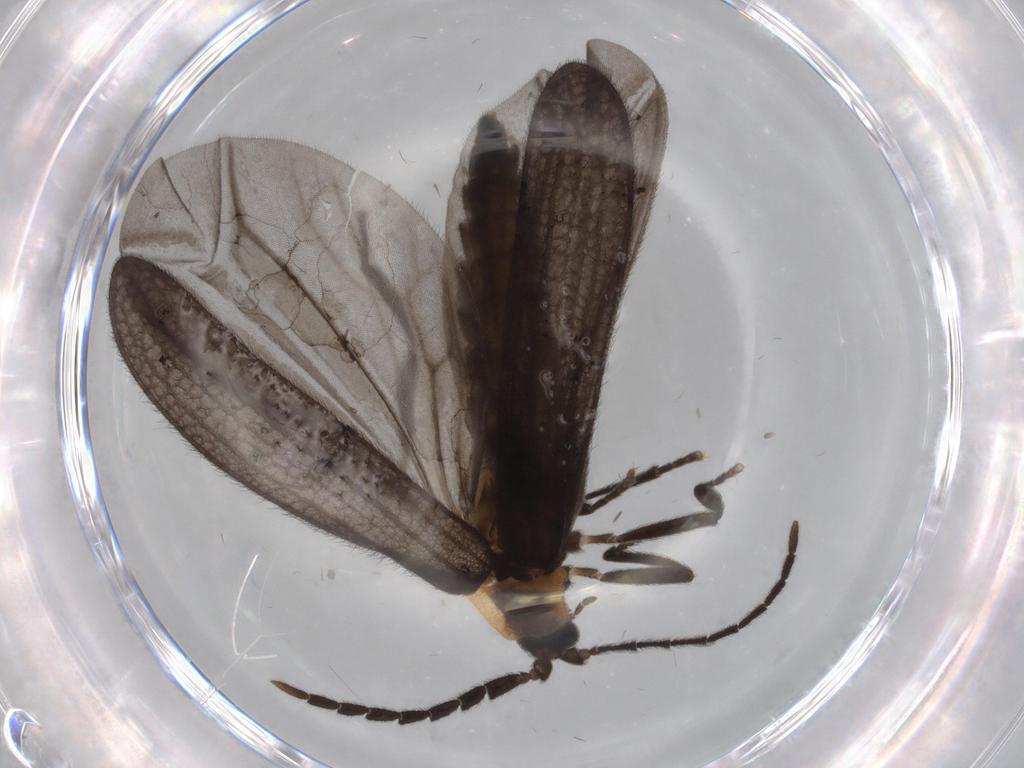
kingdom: Animalia
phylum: Arthropoda
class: Insecta
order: Coleoptera
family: Lycidae
